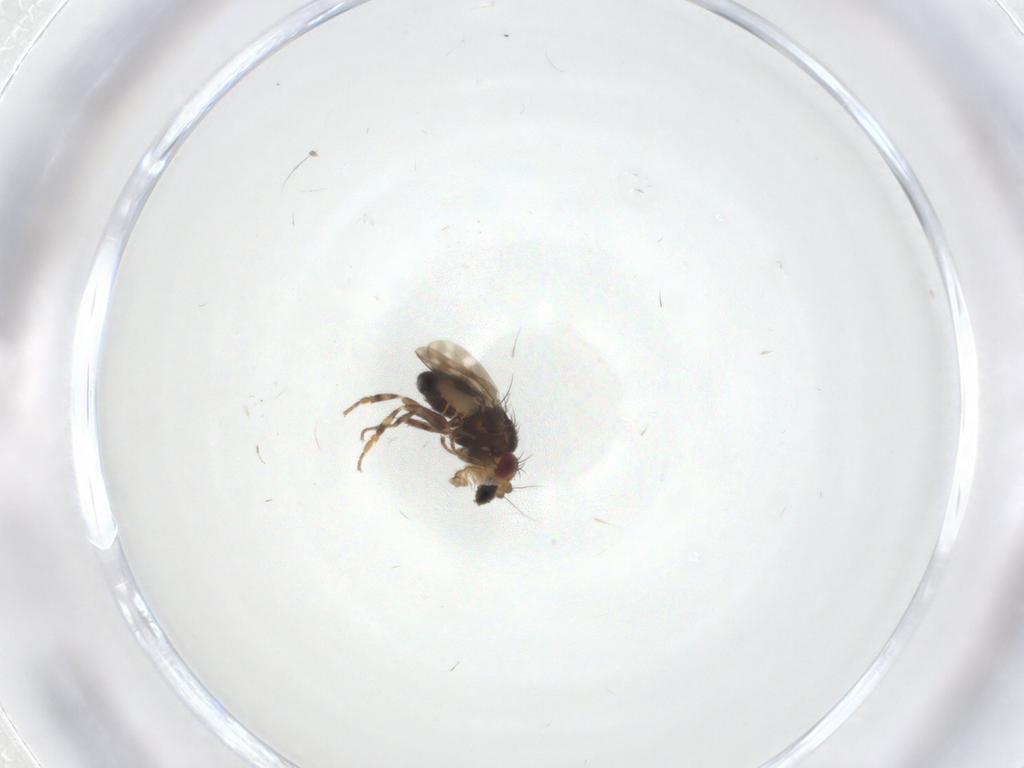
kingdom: Animalia
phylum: Arthropoda
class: Insecta
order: Diptera
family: Sphaeroceridae
